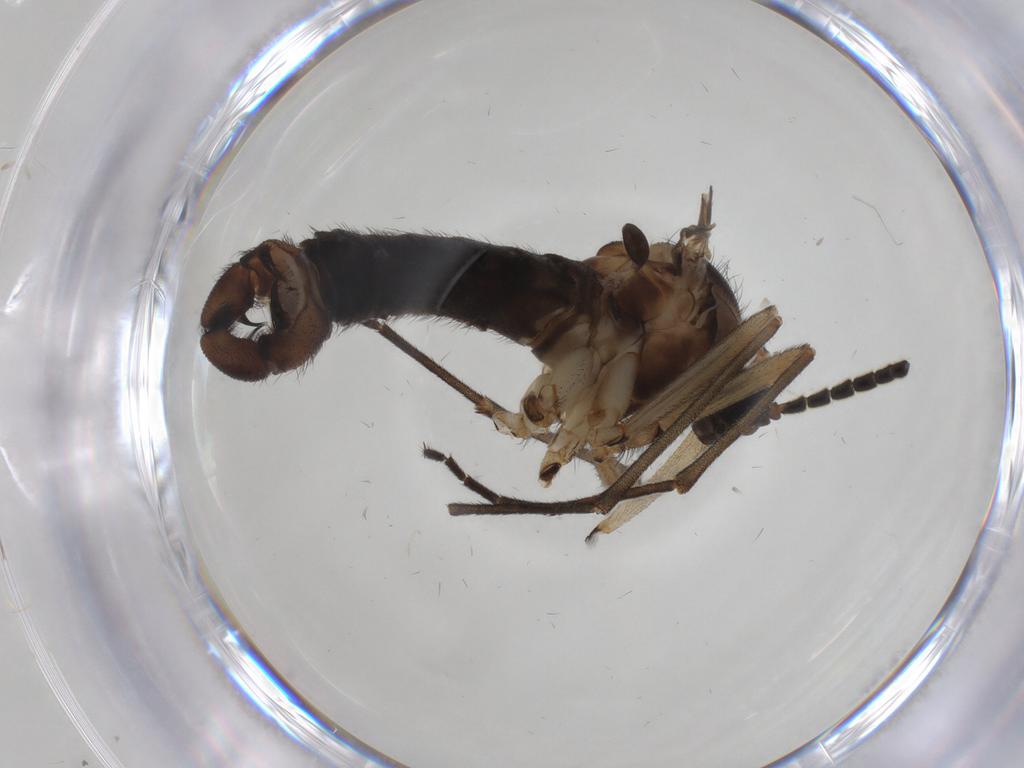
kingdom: Animalia
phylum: Arthropoda
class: Insecta
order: Diptera
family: Sciaridae
